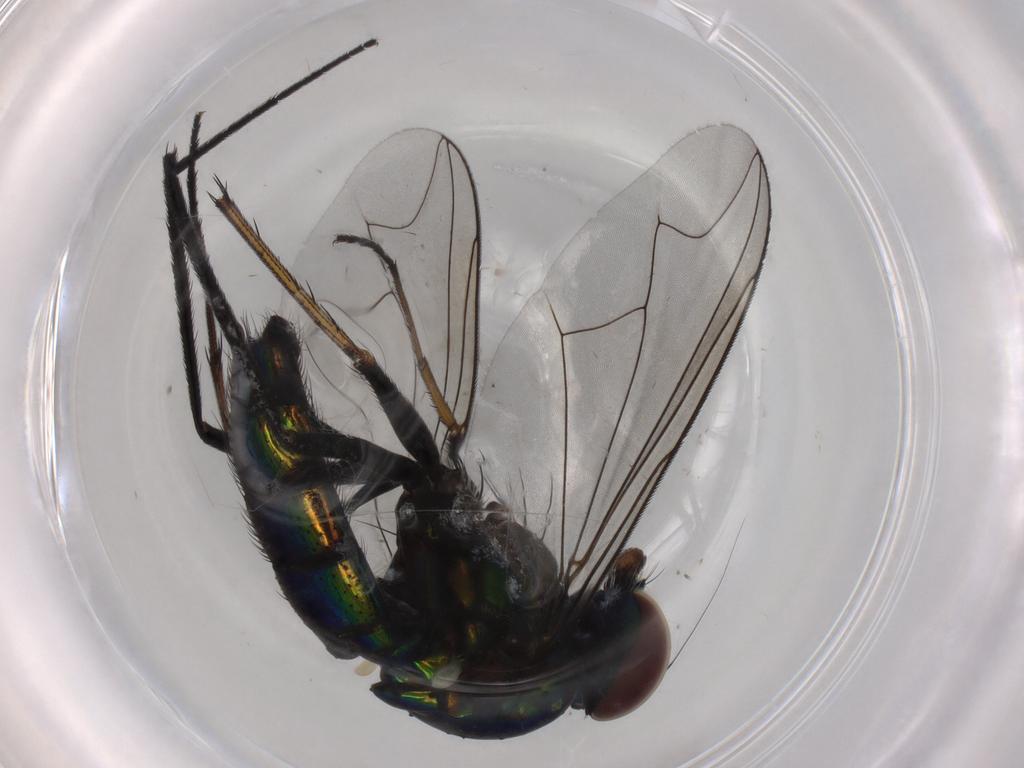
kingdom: Animalia
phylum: Arthropoda
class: Insecta
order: Diptera
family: Dolichopodidae
